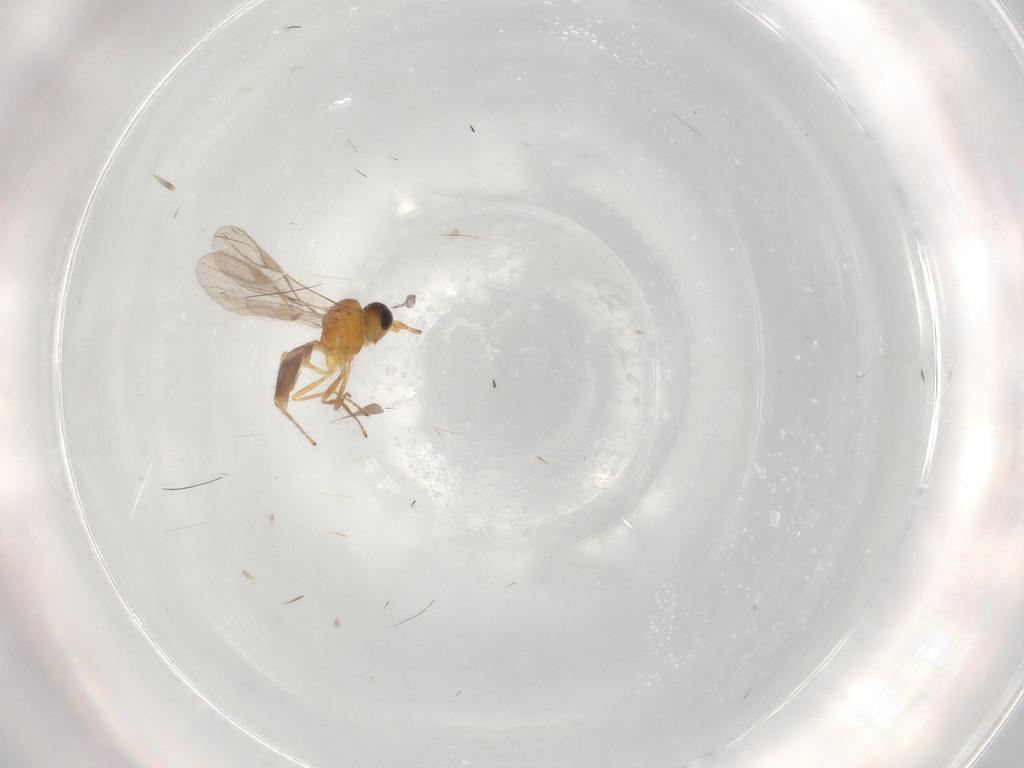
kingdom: Animalia
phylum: Arthropoda
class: Insecta
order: Hymenoptera
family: Braconidae
